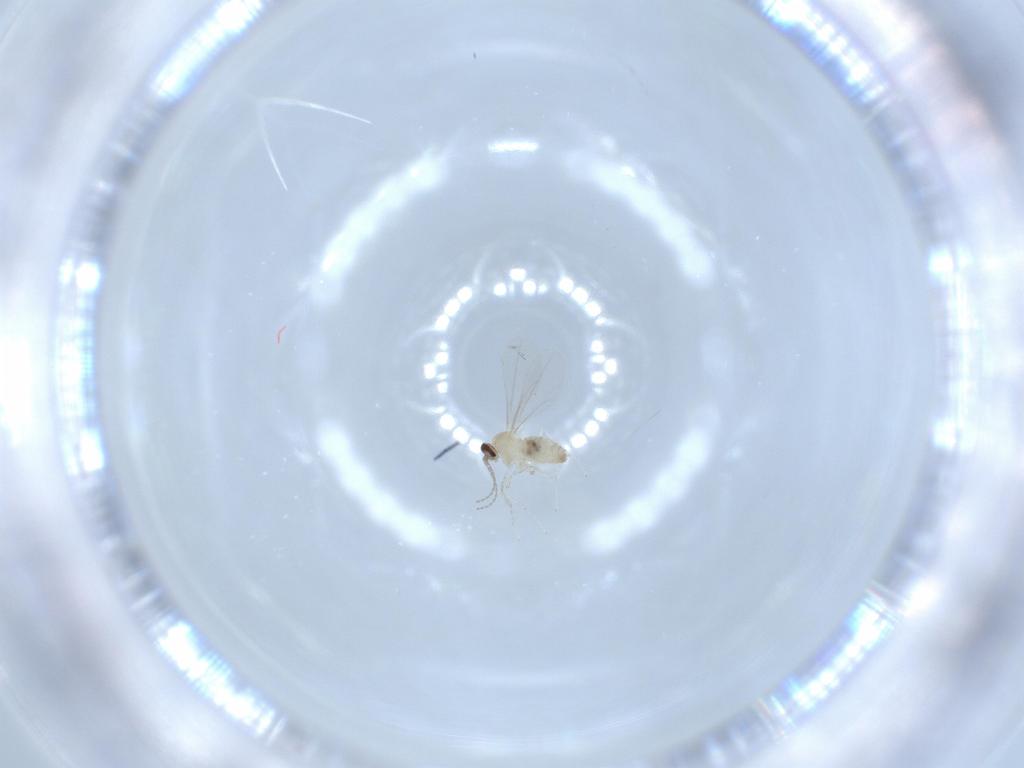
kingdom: Animalia
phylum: Arthropoda
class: Insecta
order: Diptera
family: Cecidomyiidae
